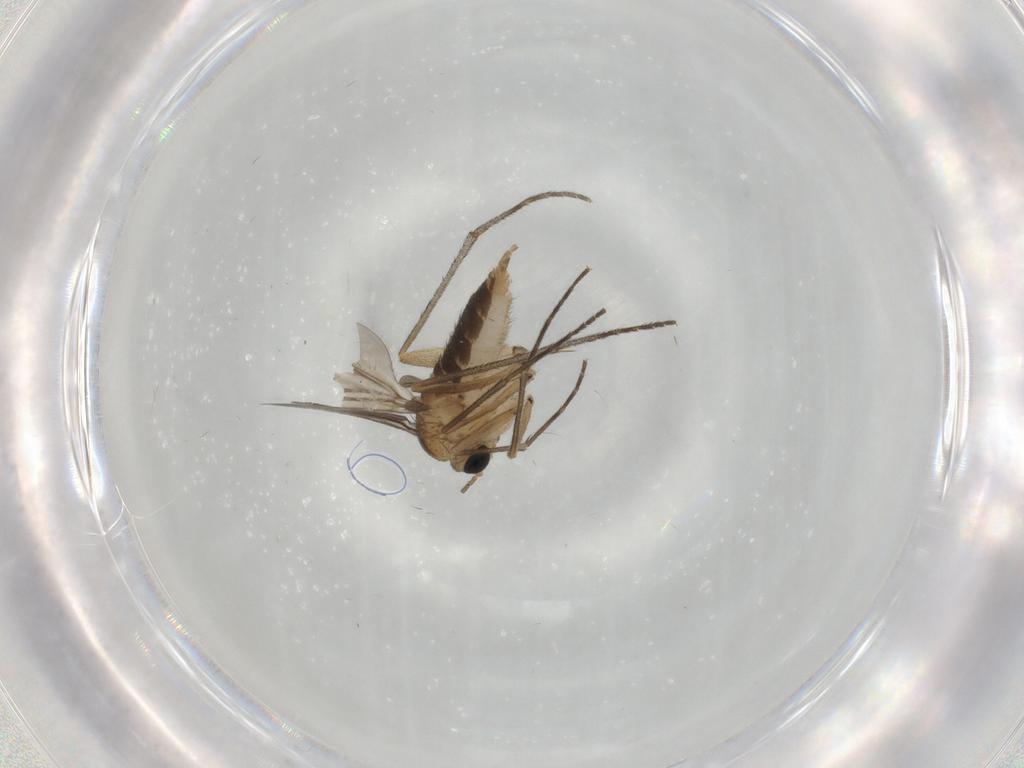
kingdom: Animalia
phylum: Arthropoda
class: Insecta
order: Diptera
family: Sciaridae
